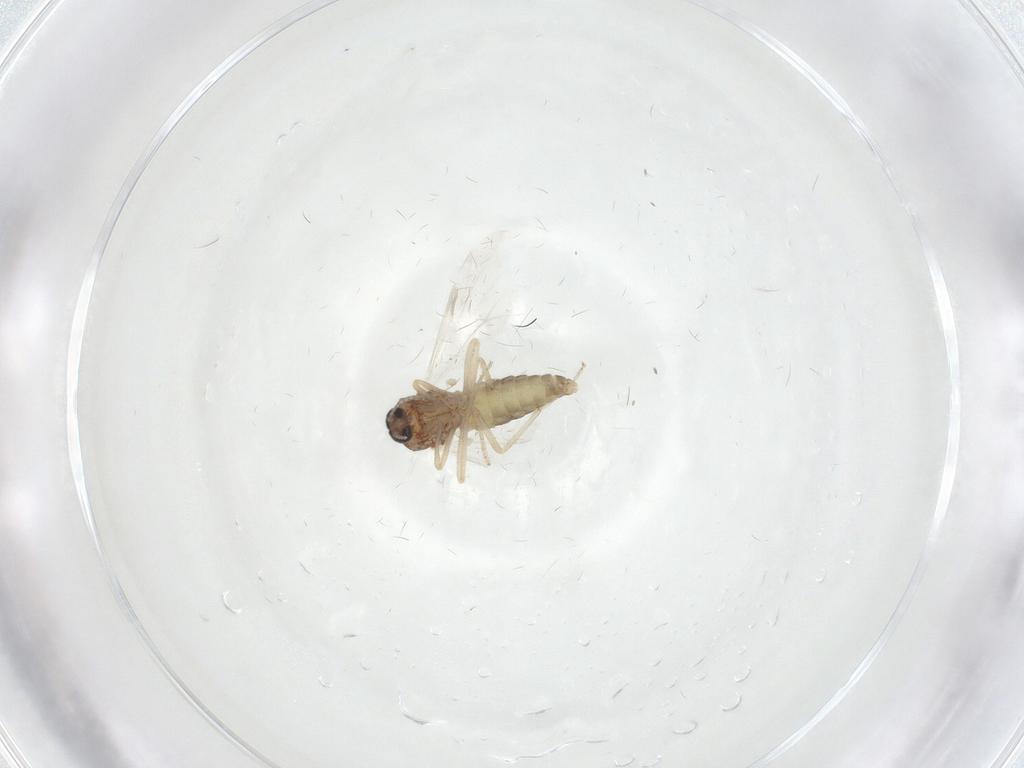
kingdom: Animalia
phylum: Arthropoda
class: Insecta
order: Diptera
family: Ceratopogonidae
